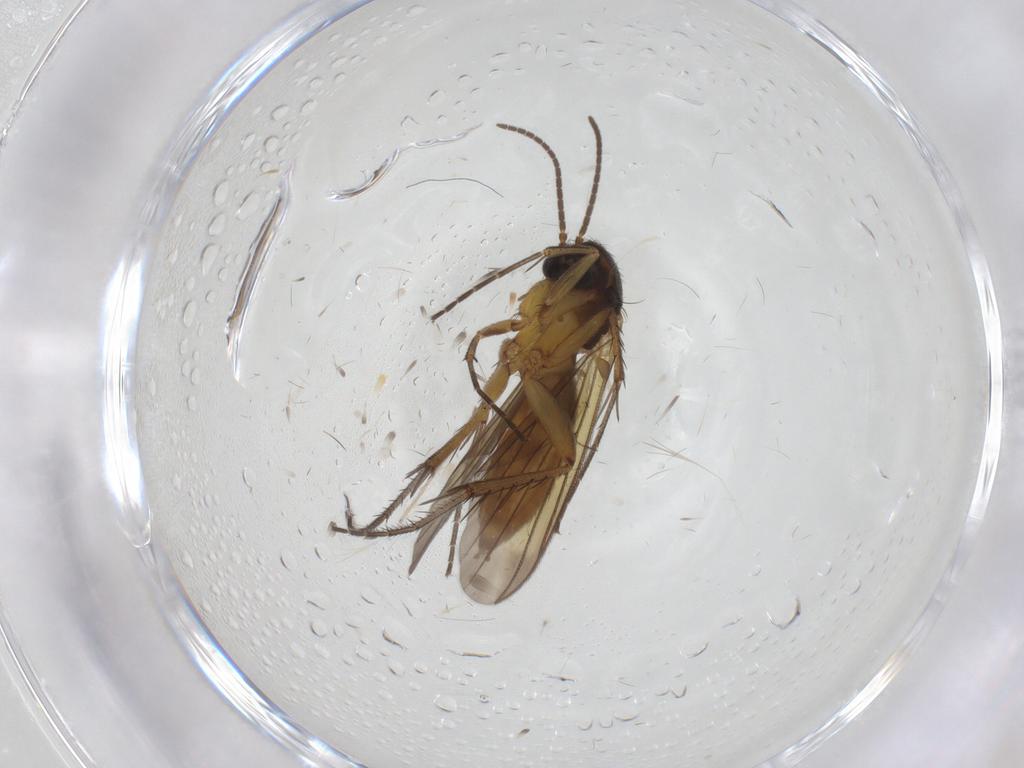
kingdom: Animalia
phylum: Arthropoda
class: Insecta
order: Diptera
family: Mycetophilidae
